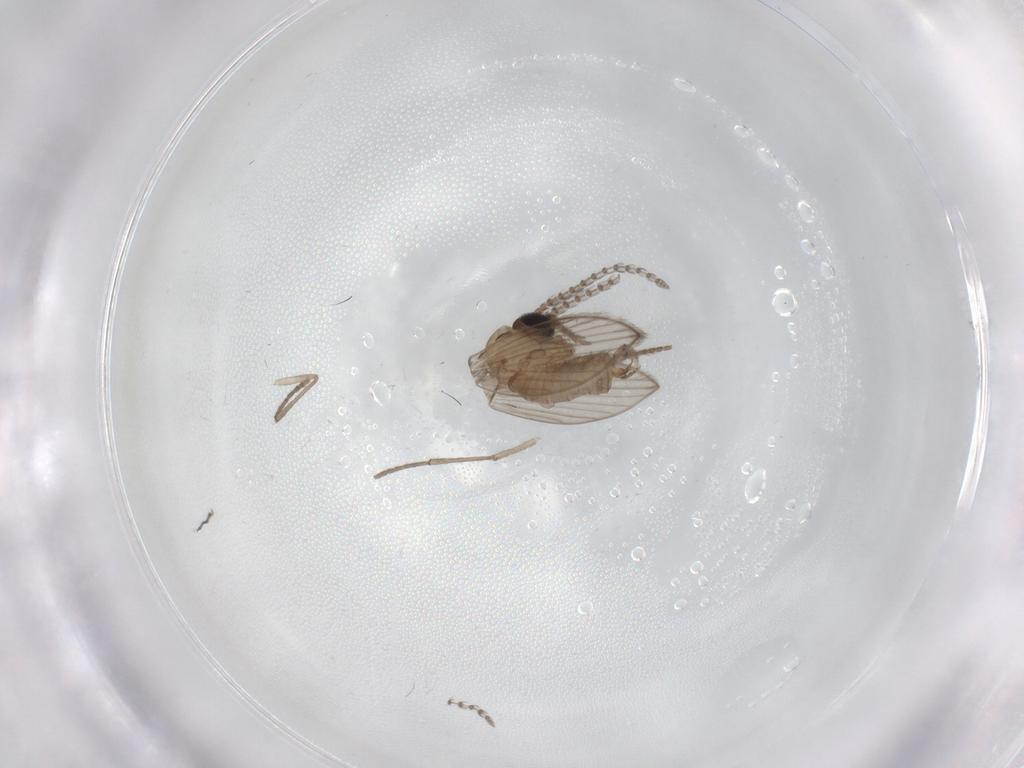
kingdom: Animalia
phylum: Arthropoda
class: Insecta
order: Diptera
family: Psychodidae
